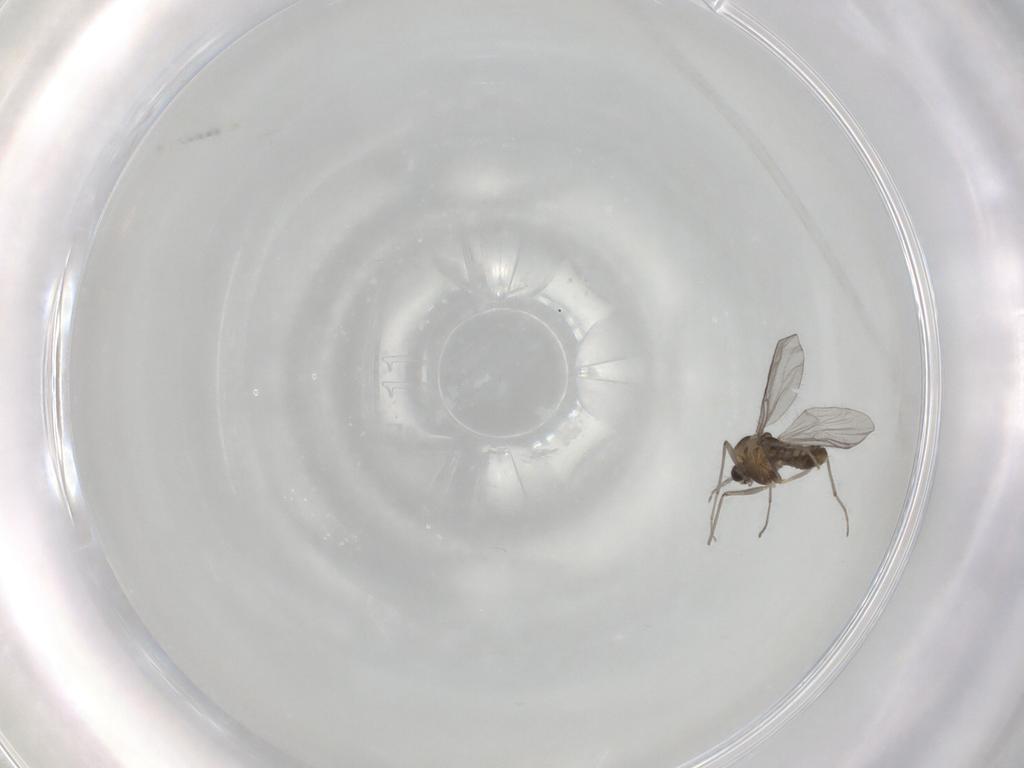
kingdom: Animalia
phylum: Arthropoda
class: Insecta
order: Diptera
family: Chironomidae
